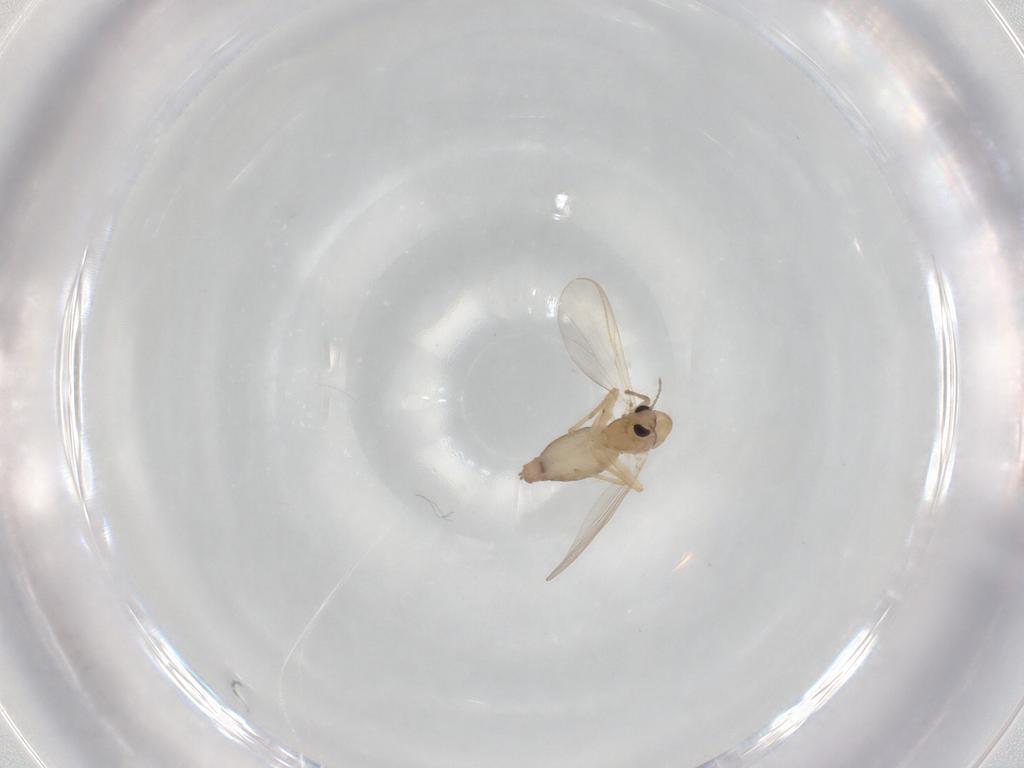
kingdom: Animalia
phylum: Arthropoda
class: Insecta
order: Diptera
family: Chironomidae
